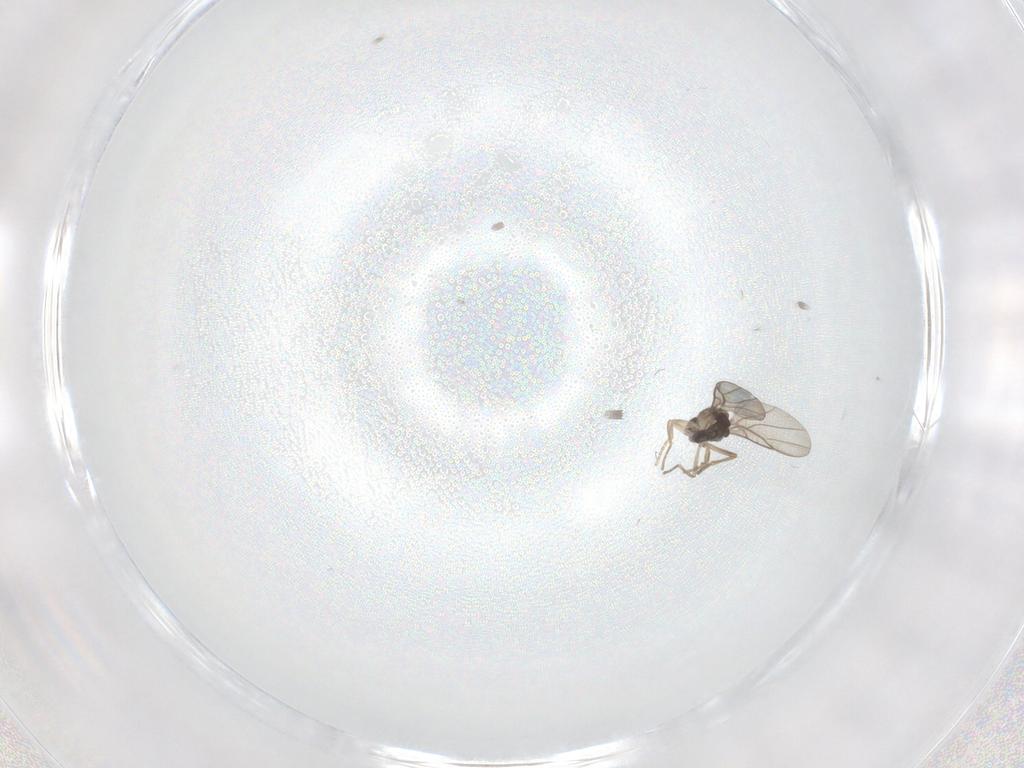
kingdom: Animalia
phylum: Arthropoda
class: Insecta
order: Diptera
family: Phoridae
